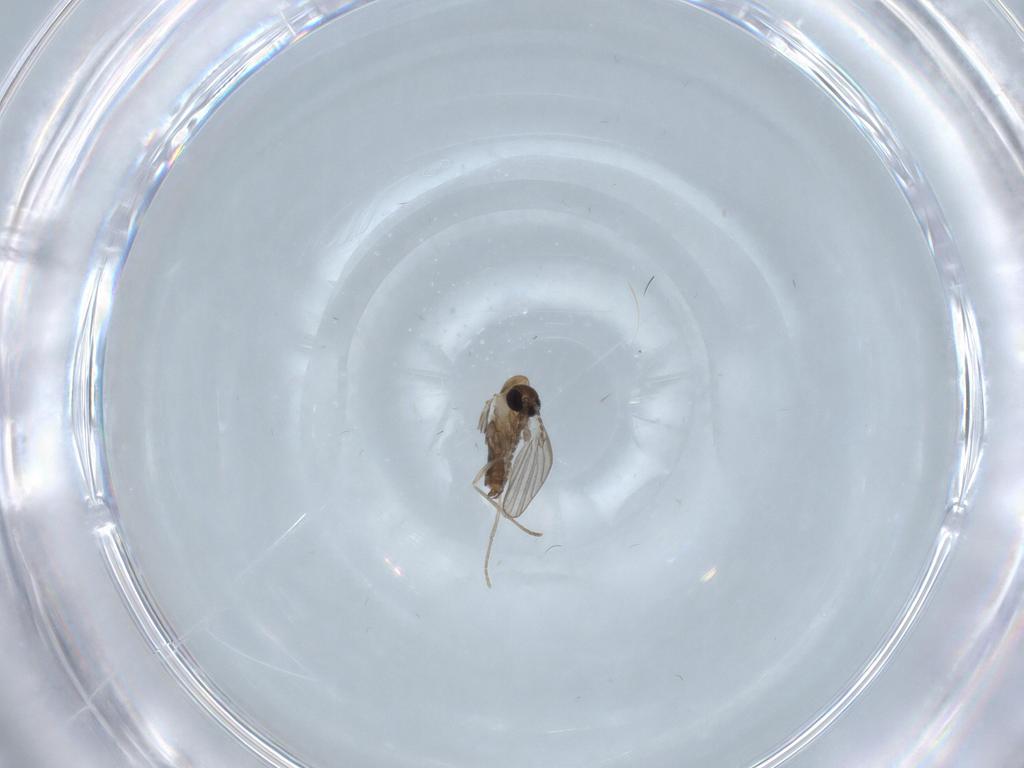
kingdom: Animalia
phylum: Arthropoda
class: Insecta
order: Diptera
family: Psychodidae
